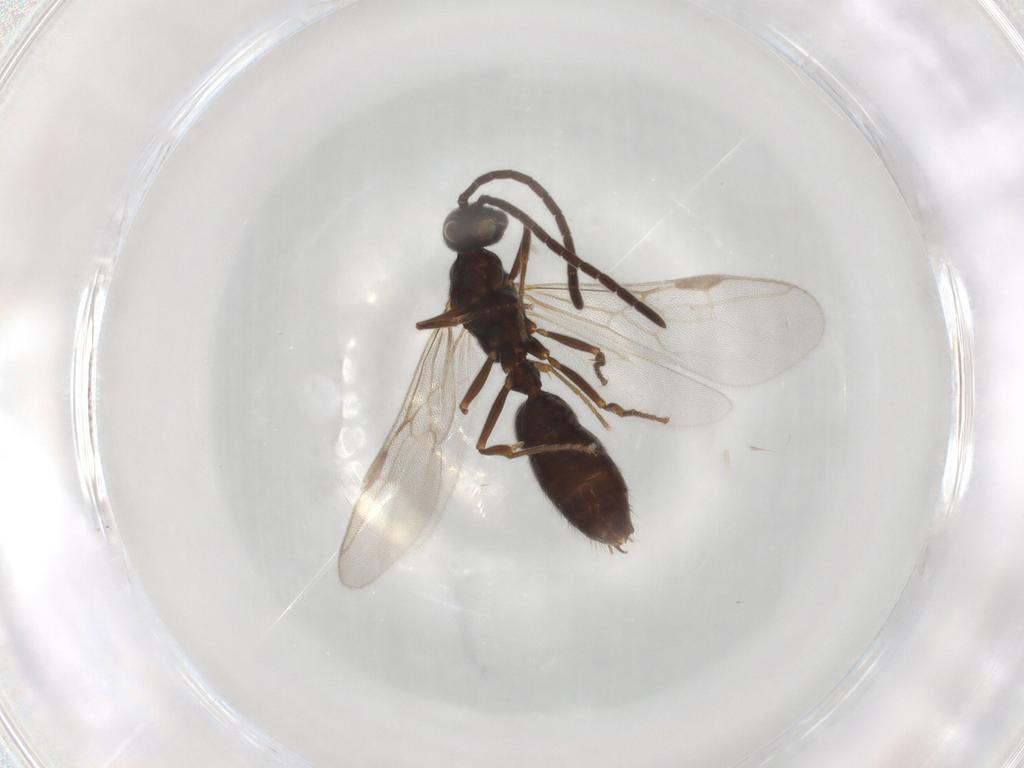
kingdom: Animalia
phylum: Arthropoda
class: Insecta
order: Hymenoptera
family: Formicidae
